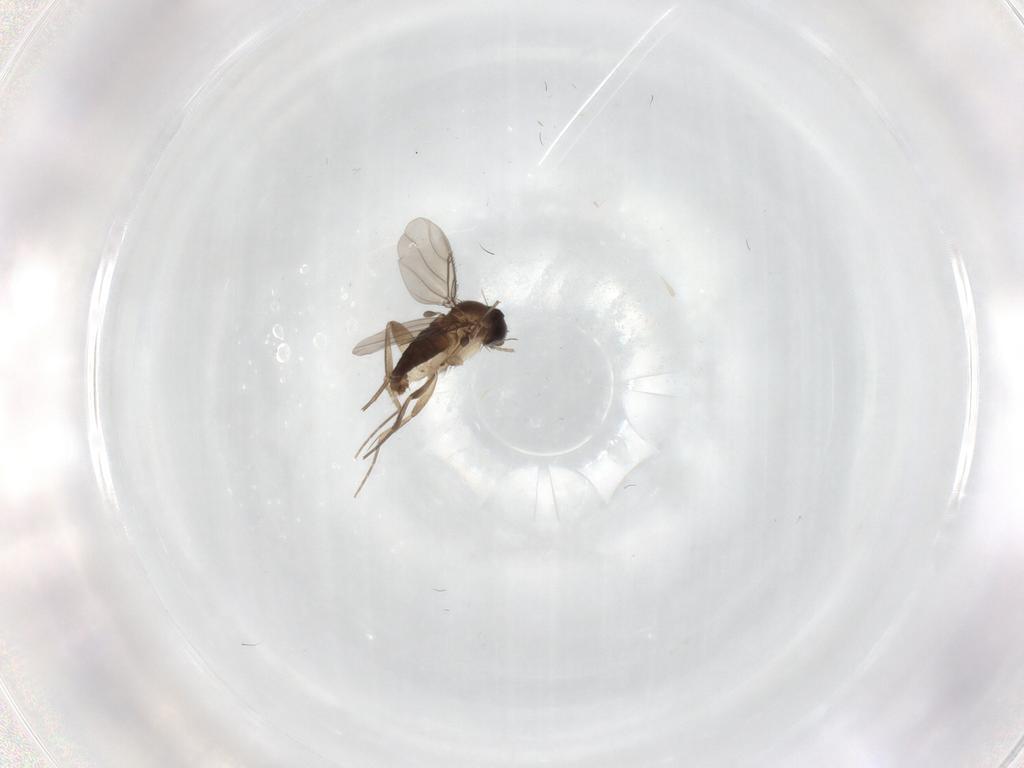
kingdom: Animalia
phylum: Arthropoda
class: Insecta
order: Diptera
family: Phoridae
